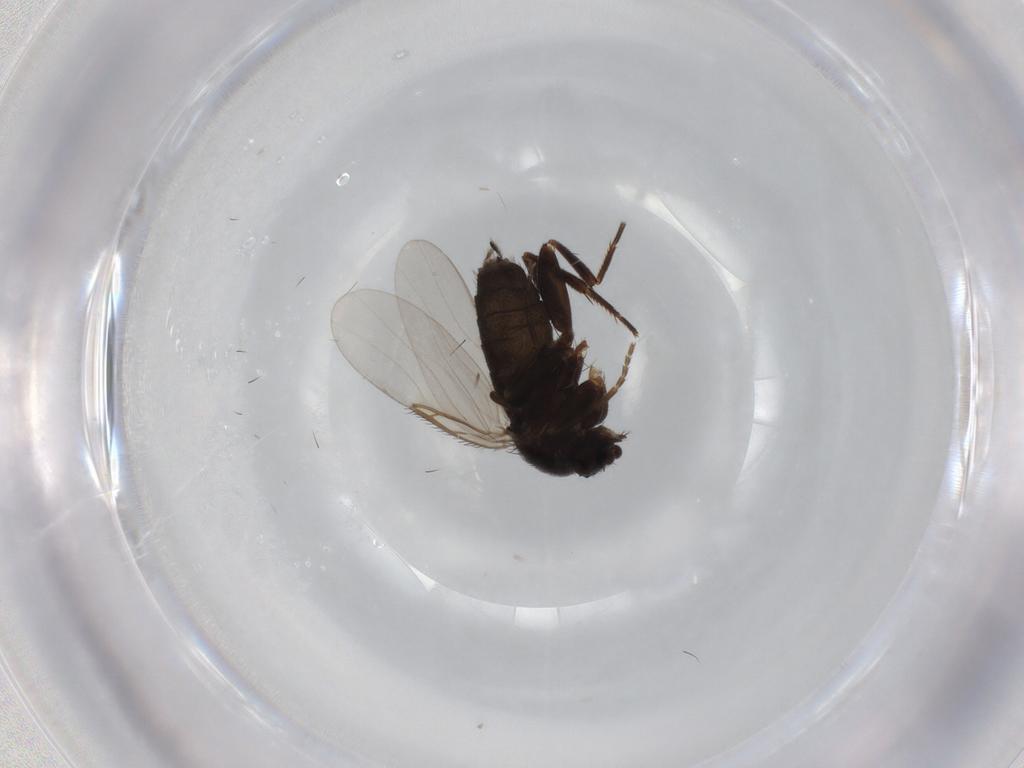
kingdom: Animalia
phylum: Arthropoda
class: Insecta
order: Diptera
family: Phoridae
